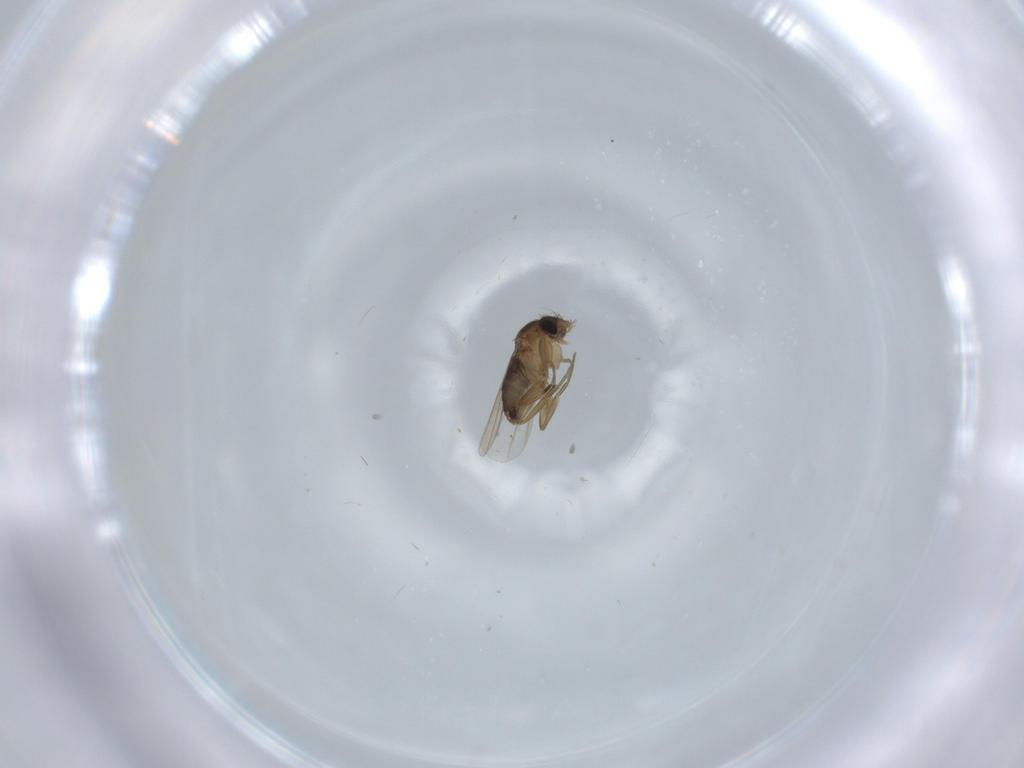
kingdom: Animalia
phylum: Arthropoda
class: Insecta
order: Diptera
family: Phoridae
